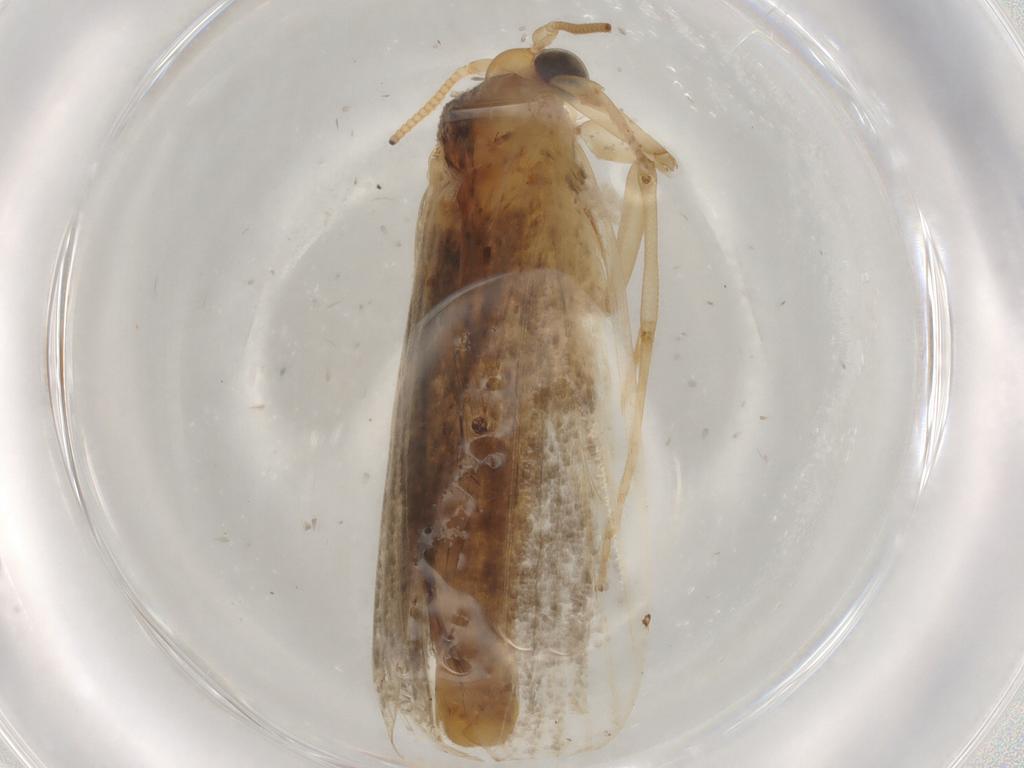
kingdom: Animalia
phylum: Arthropoda
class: Insecta
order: Lepidoptera
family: Erebidae
